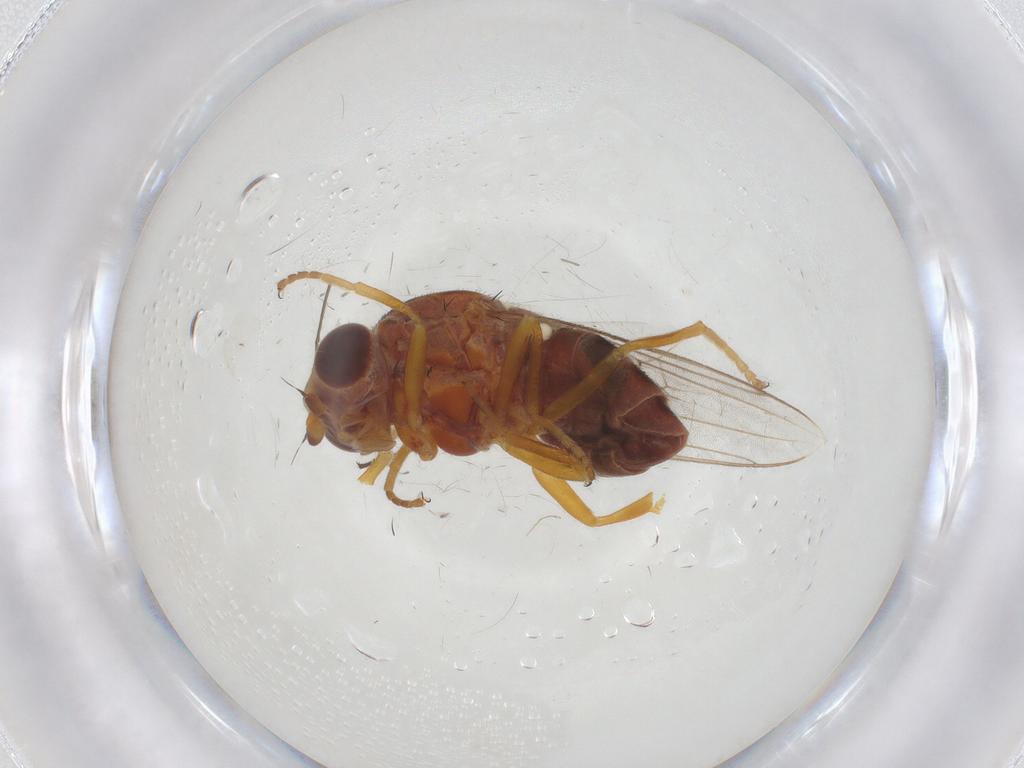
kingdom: Animalia
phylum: Arthropoda
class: Insecta
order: Diptera
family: Chloropidae
